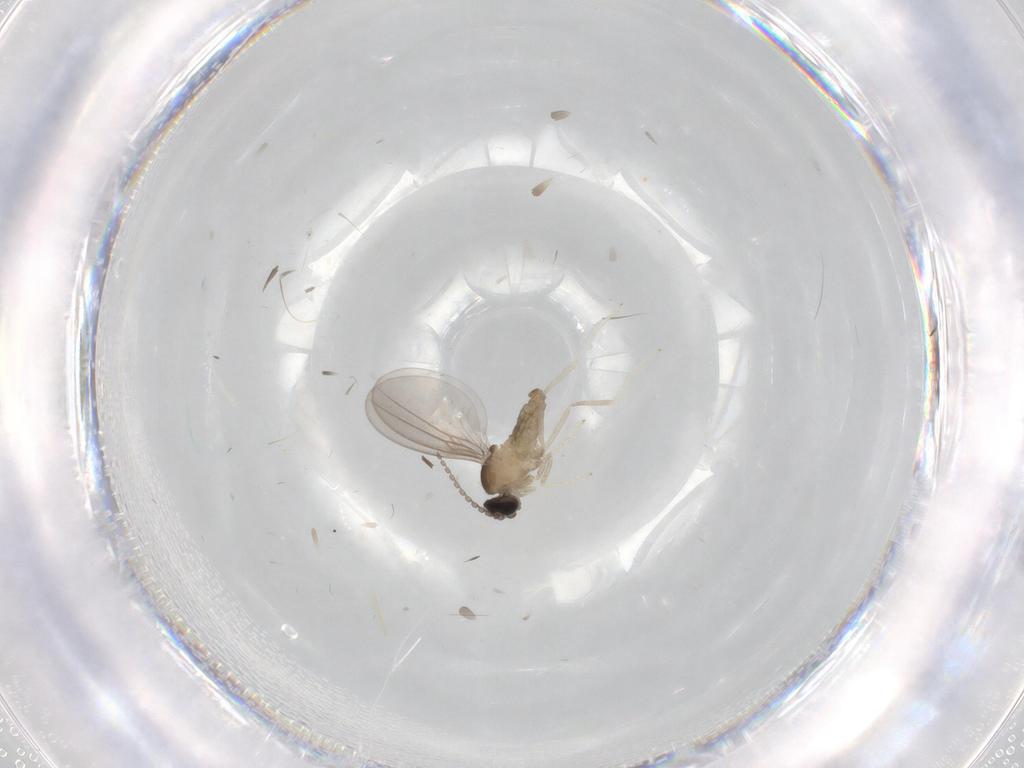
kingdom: Animalia
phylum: Arthropoda
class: Insecta
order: Diptera
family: Cecidomyiidae
